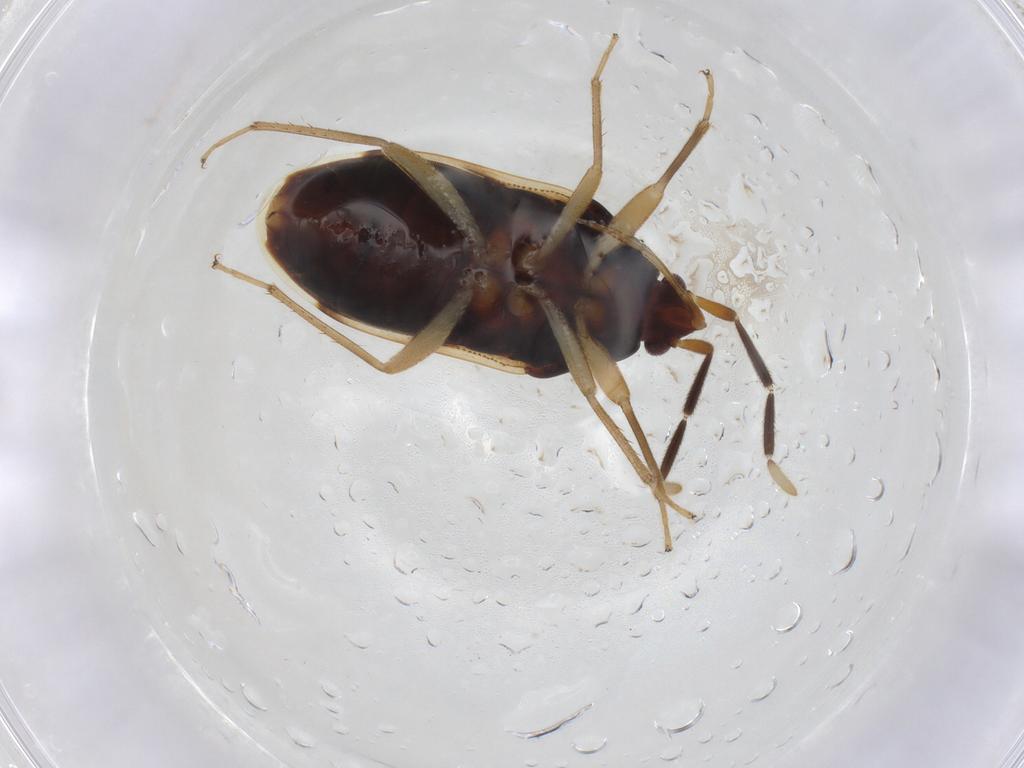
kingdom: Animalia
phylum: Arthropoda
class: Insecta
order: Hemiptera
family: Rhyparochromidae
